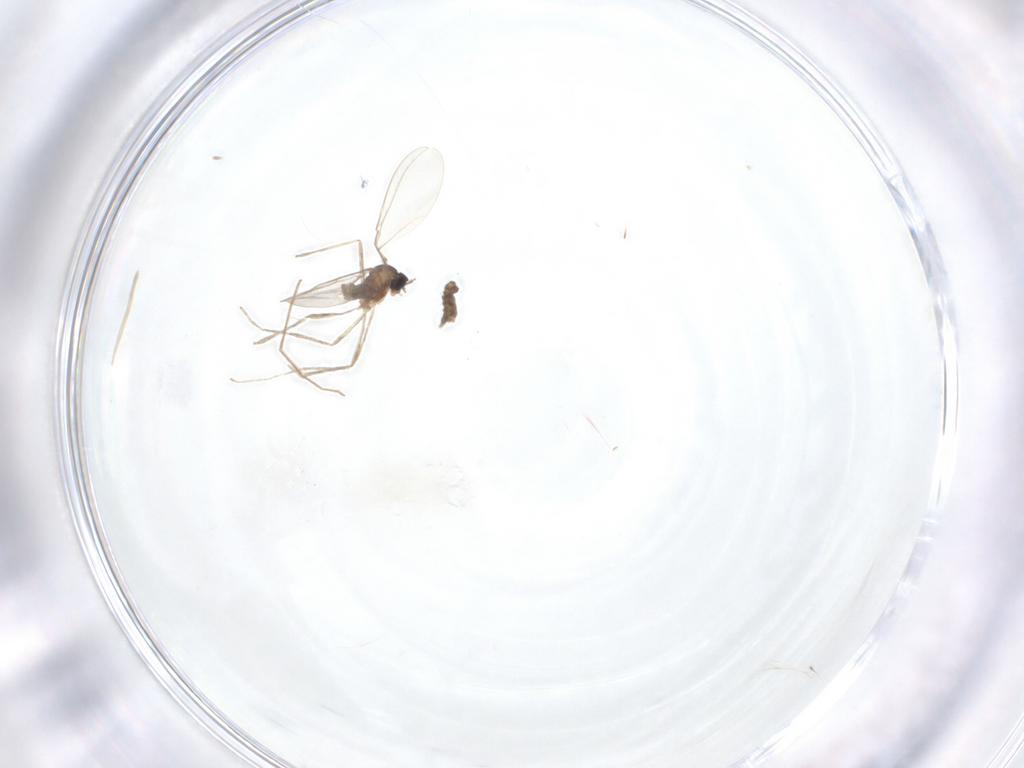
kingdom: Animalia
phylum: Arthropoda
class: Insecta
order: Diptera
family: Cecidomyiidae
